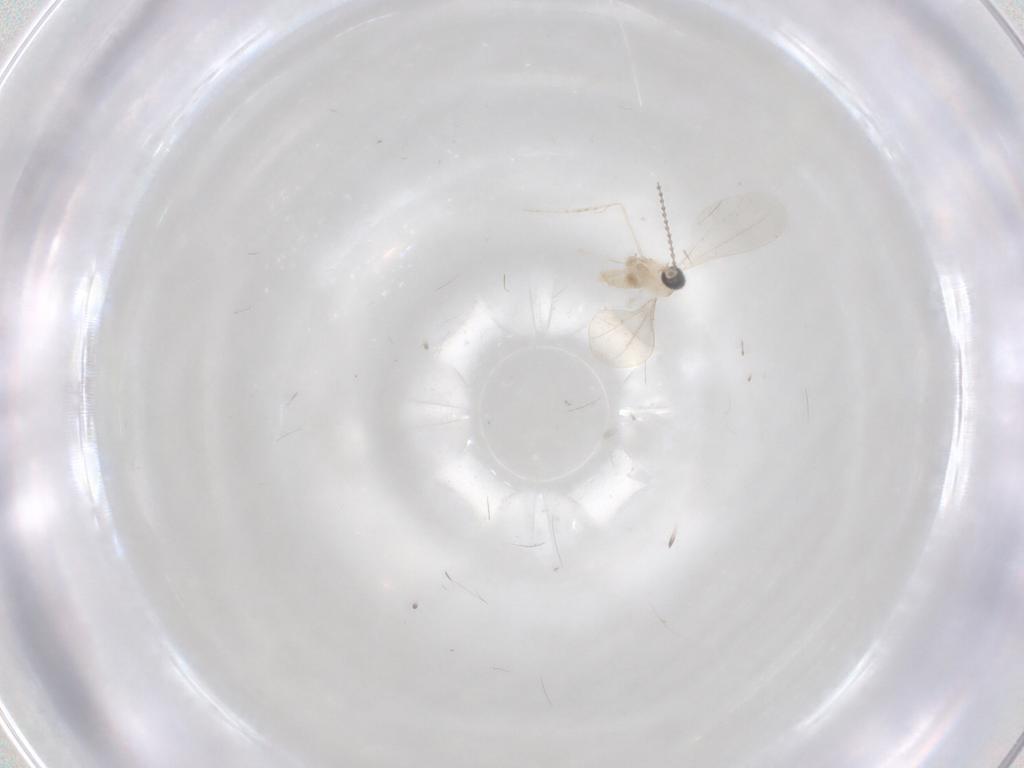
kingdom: Animalia
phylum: Arthropoda
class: Insecta
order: Diptera
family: Cecidomyiidae
